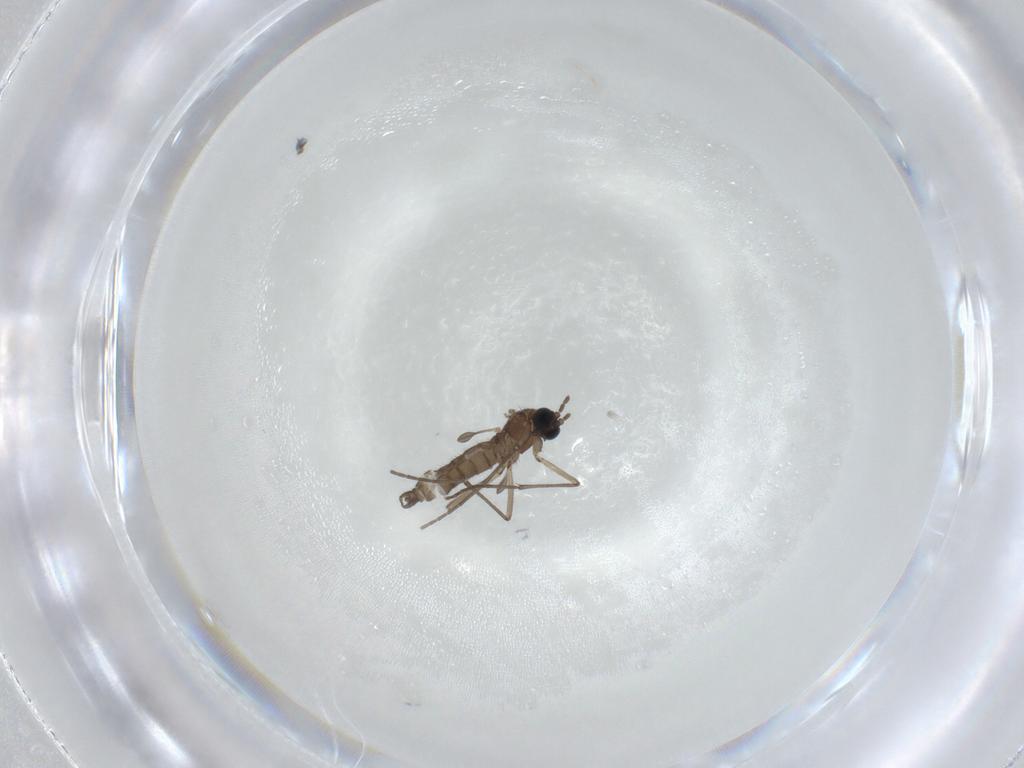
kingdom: Animalia
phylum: Arthropoda
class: Insecta
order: Diptera
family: Sciaridae
